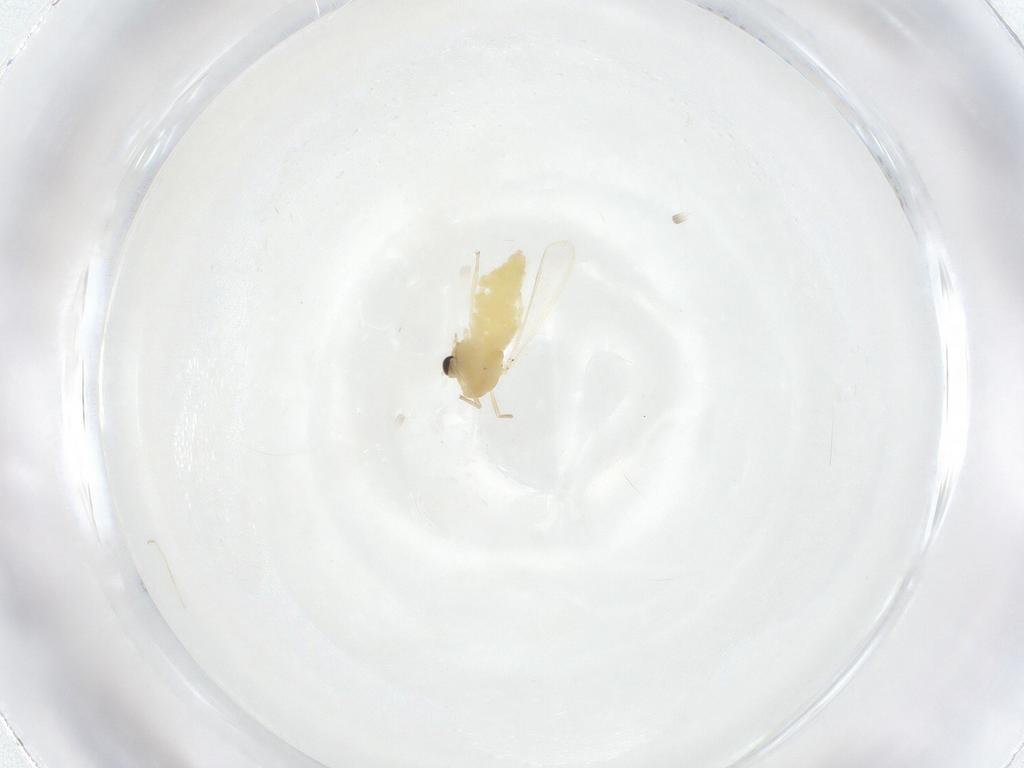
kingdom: Animalia
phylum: Arthropoda
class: Insecta
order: Diptera
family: Chironomidae
